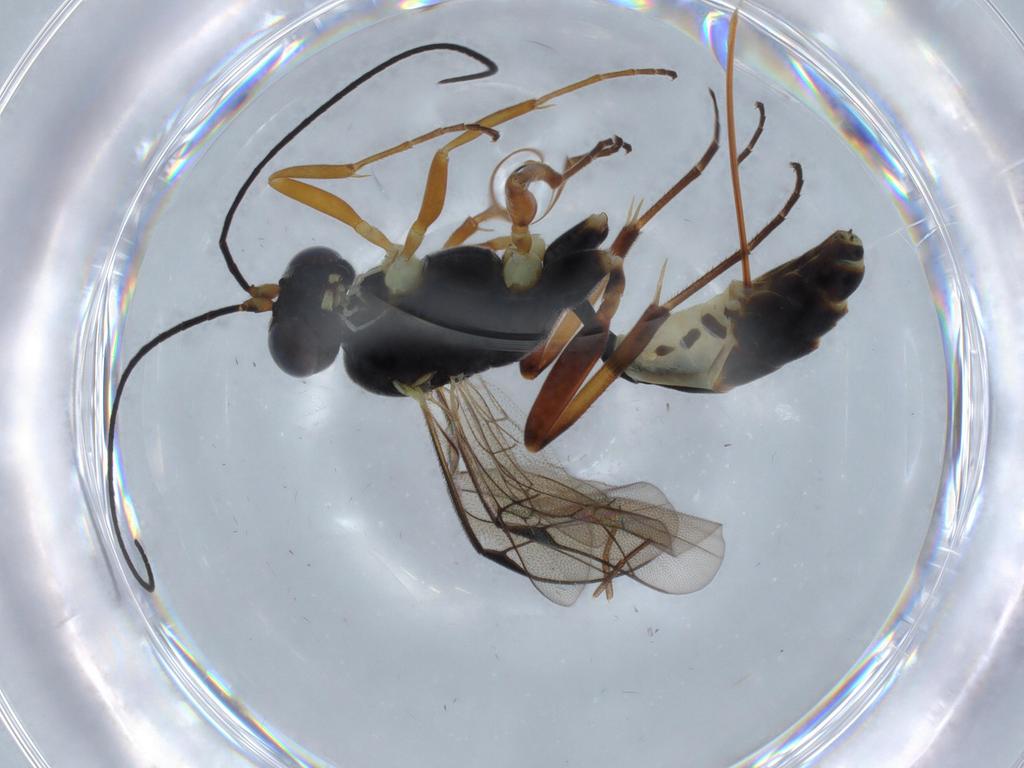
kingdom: Animalia
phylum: Arthropoda
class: Insecta
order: Hymenoptera
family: Ichneumonidae
